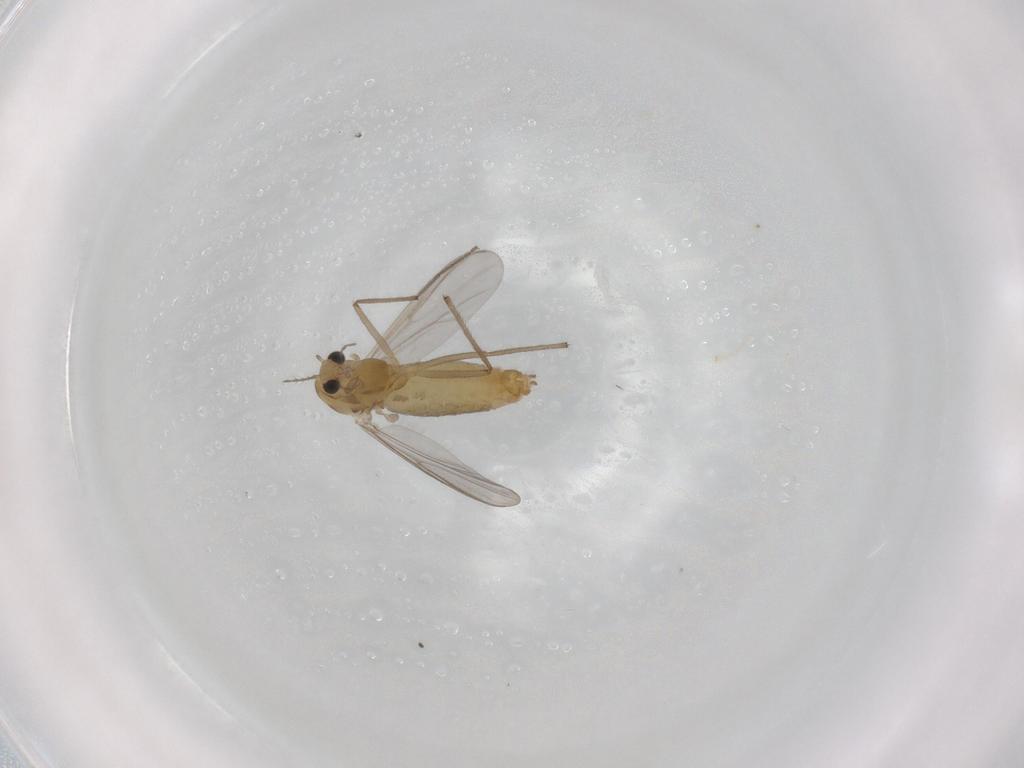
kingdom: Animalia
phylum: Arthropoda
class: Insecta
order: Diptera
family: Chironomidae
